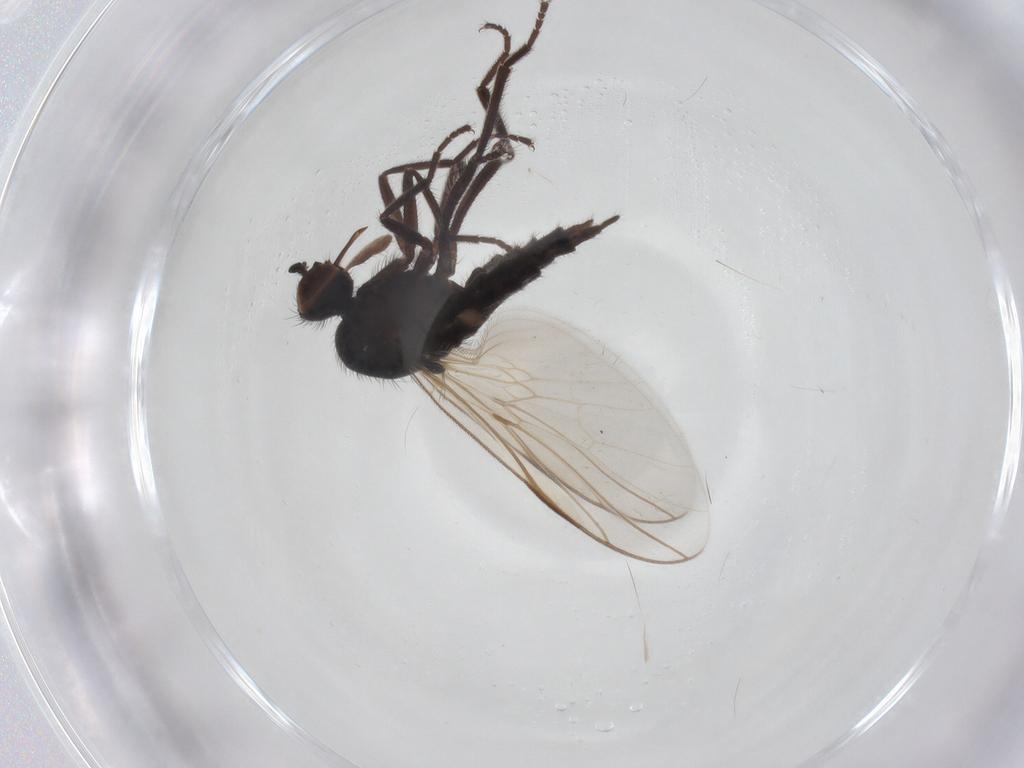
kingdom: Animalia
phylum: Arthropoda
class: Insecta
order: Diptera
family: Empididae
